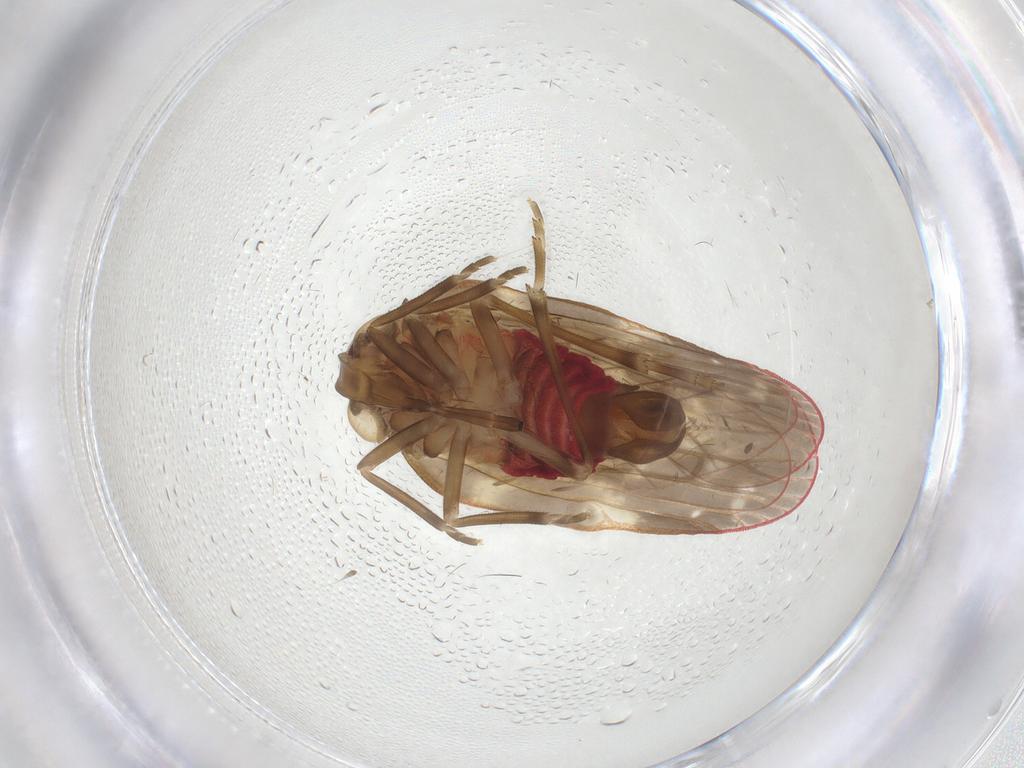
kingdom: Animalia
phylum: Arthropoda
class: Insecta
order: Hemiptera
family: Achilidae
